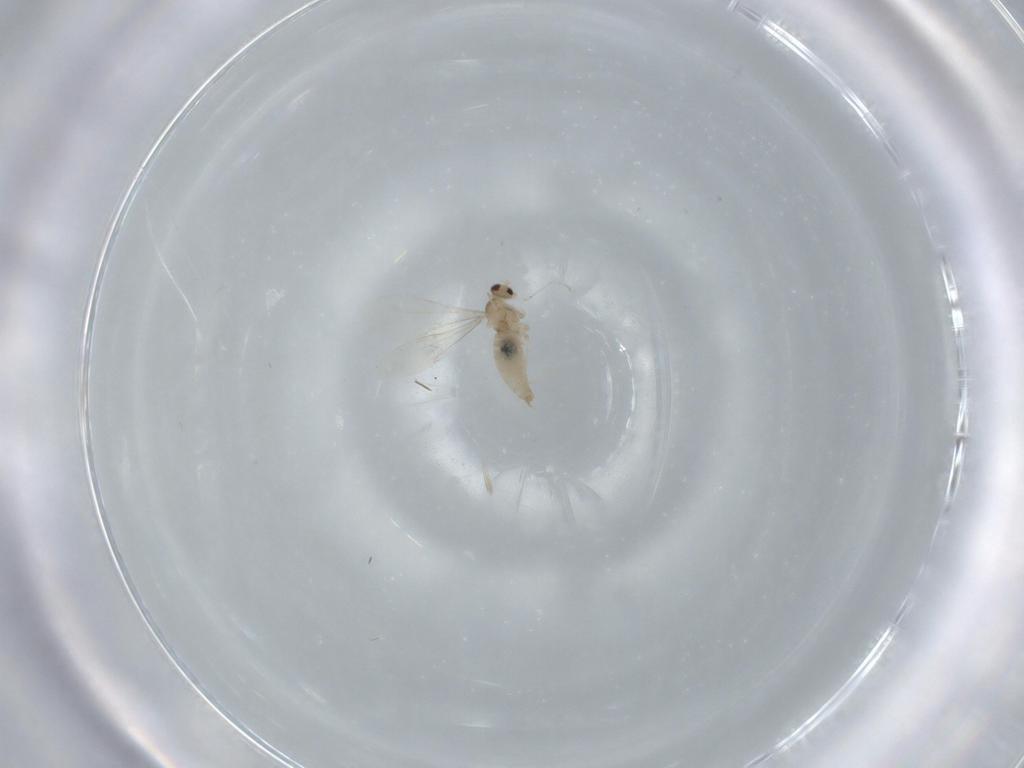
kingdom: Animalia
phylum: Arthropoda
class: Insecta
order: Diptera
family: Cecidomyiidae
